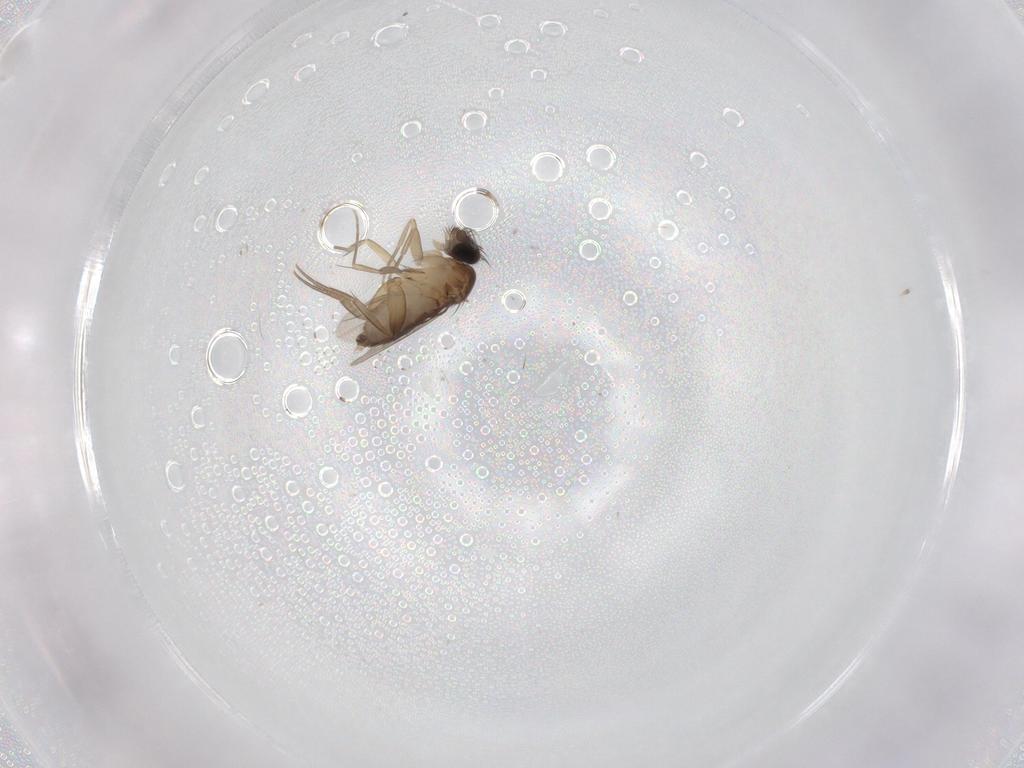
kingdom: Animalia
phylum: Arthropoda
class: Insecta
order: Diptera
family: Phoridae
